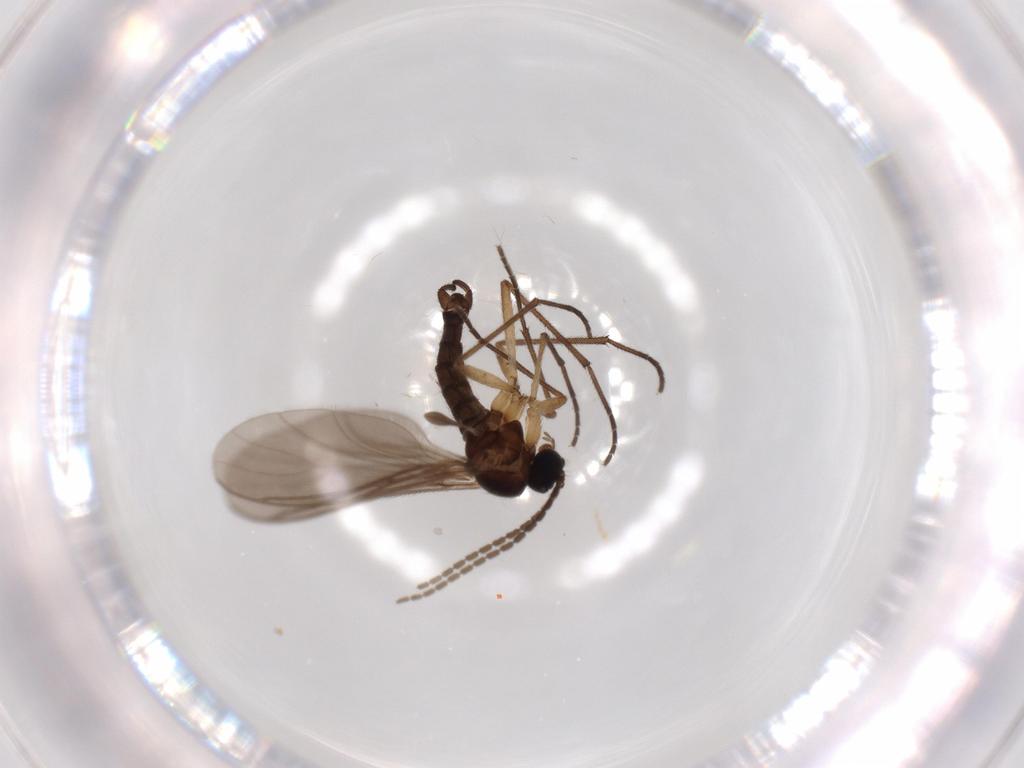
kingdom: Animalia
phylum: Arthropoda
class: Insecta
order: Diptera
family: Sciaridae
